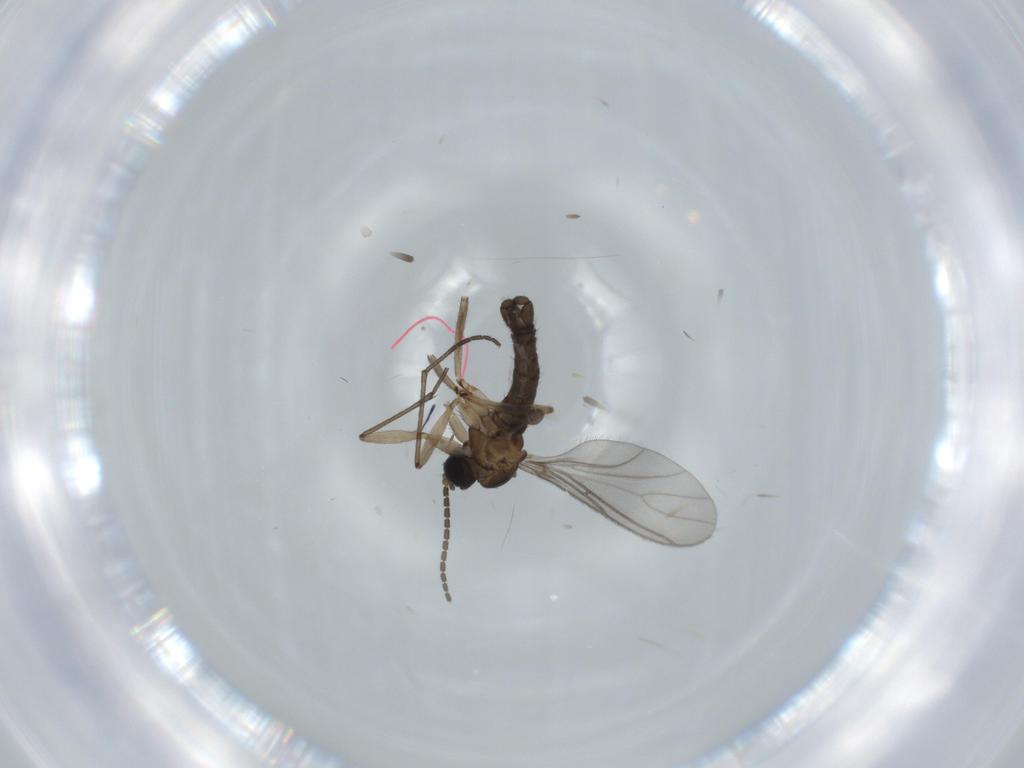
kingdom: Animalia
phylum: Arthropoda
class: Insecta
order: Diptera
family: Sciaridae
